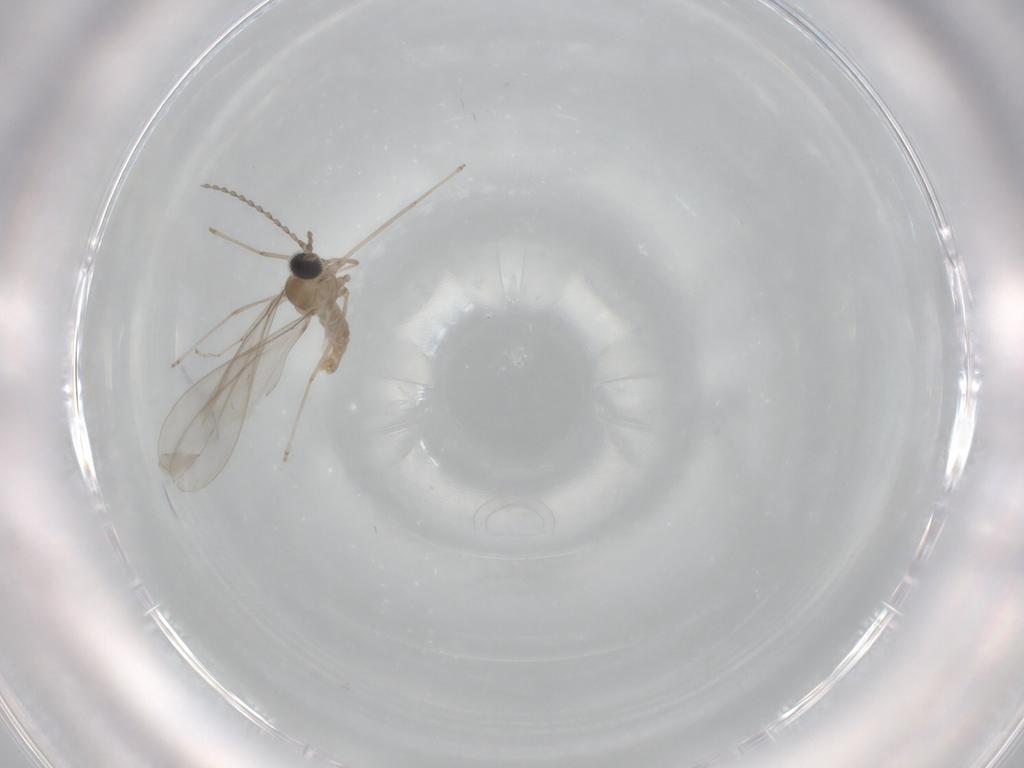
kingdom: Animalia
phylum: Arthropoda
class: Insecta
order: Diptera
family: Cecidomyiidae
